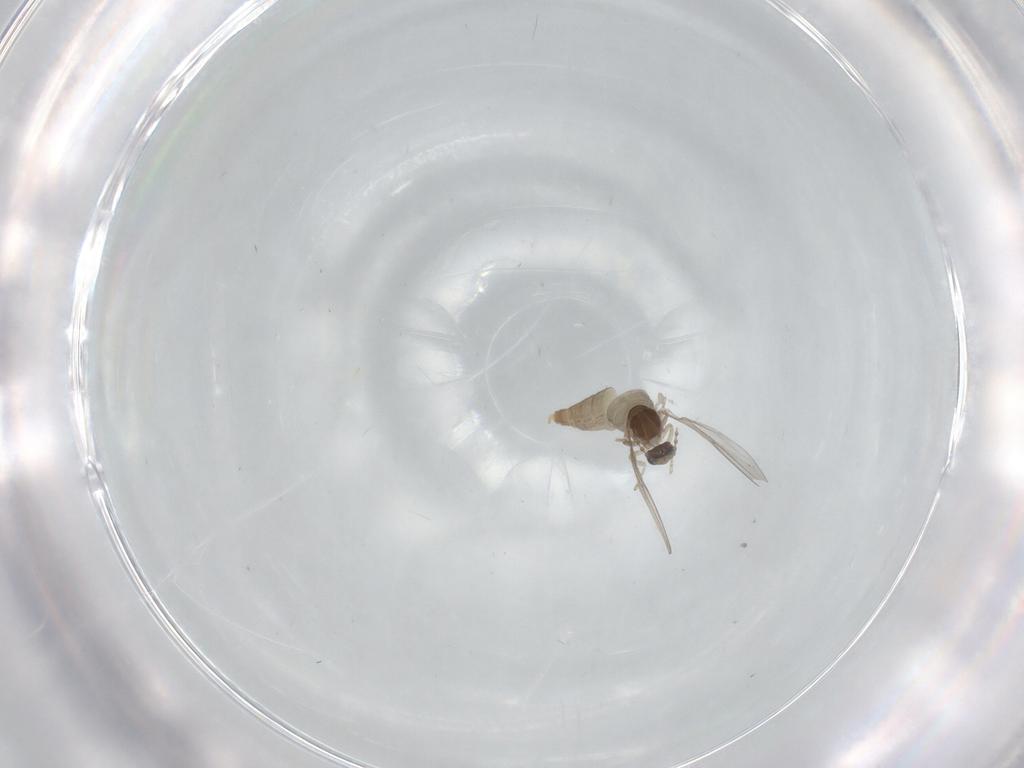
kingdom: Animalia
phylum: Arthropoda
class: Insecta
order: Diptera
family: Cecidomyiidae
